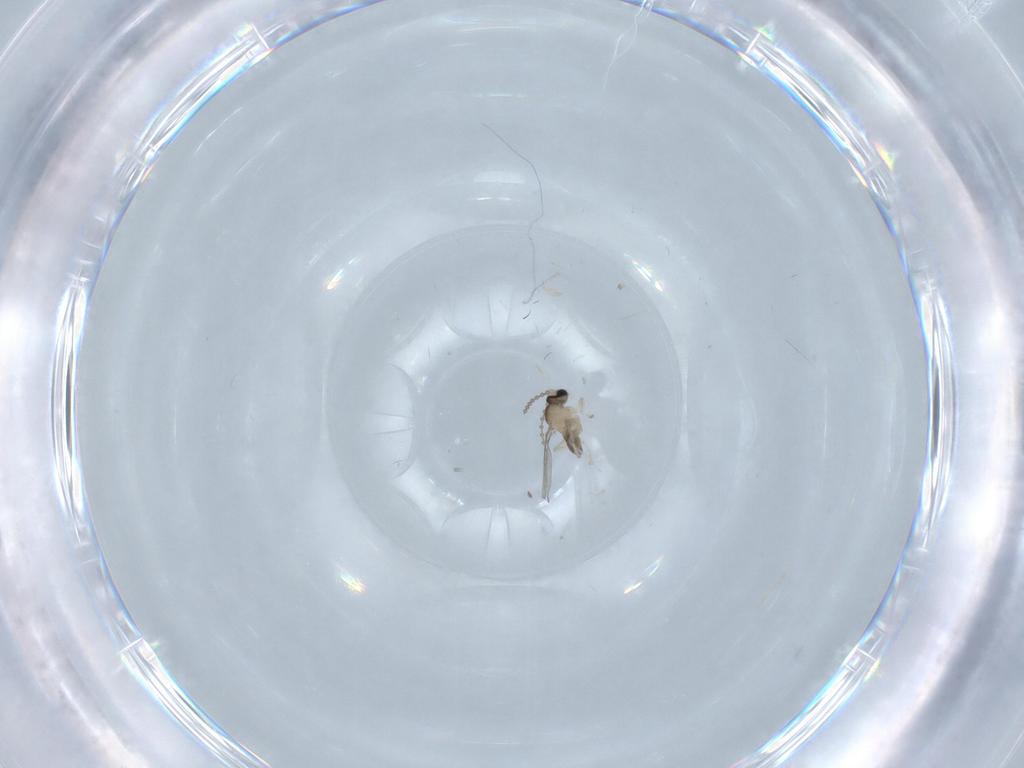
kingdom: Animalia
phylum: Arthropoda
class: Insecta
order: Diptera
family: Chironomidae
